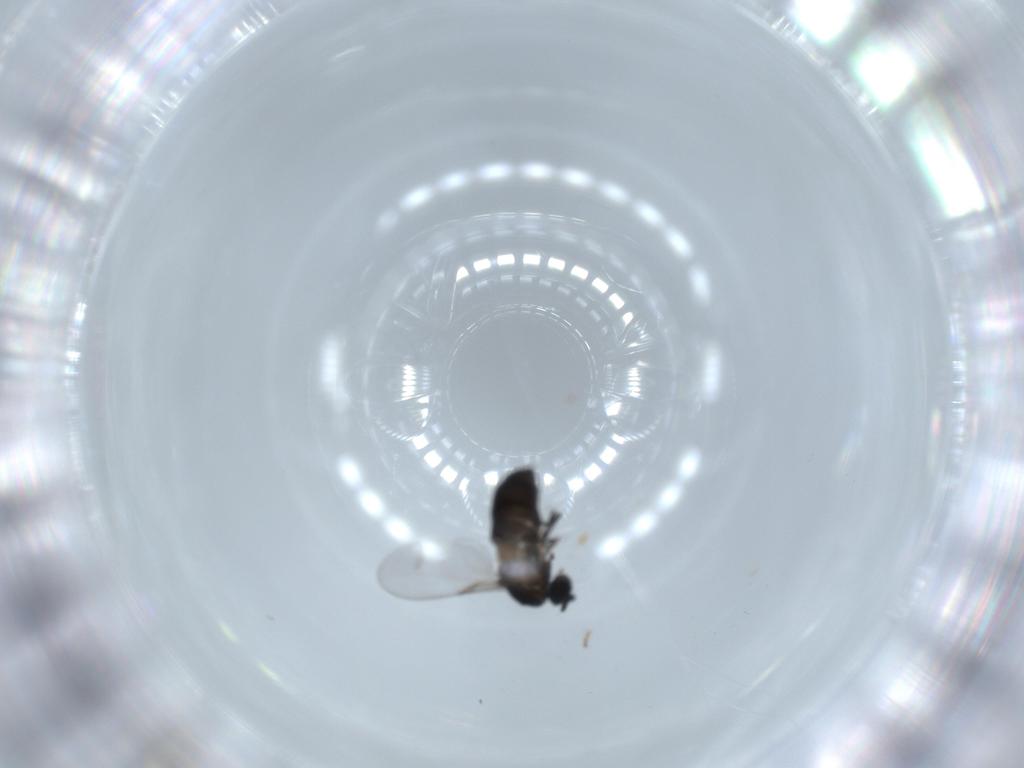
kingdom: Animalia
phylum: Arthropoda
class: Insecta
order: Diptera
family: Scatopsidae
